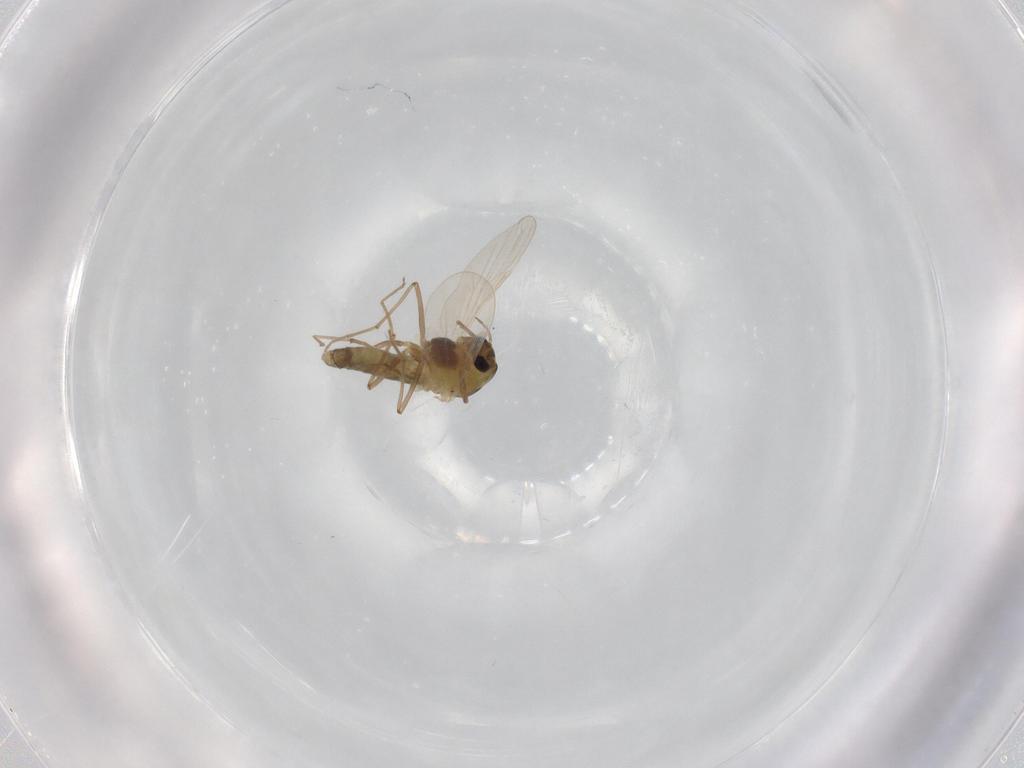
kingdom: Animalia
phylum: Arthropoda
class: Insecta
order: Diptera
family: Chironomidae
